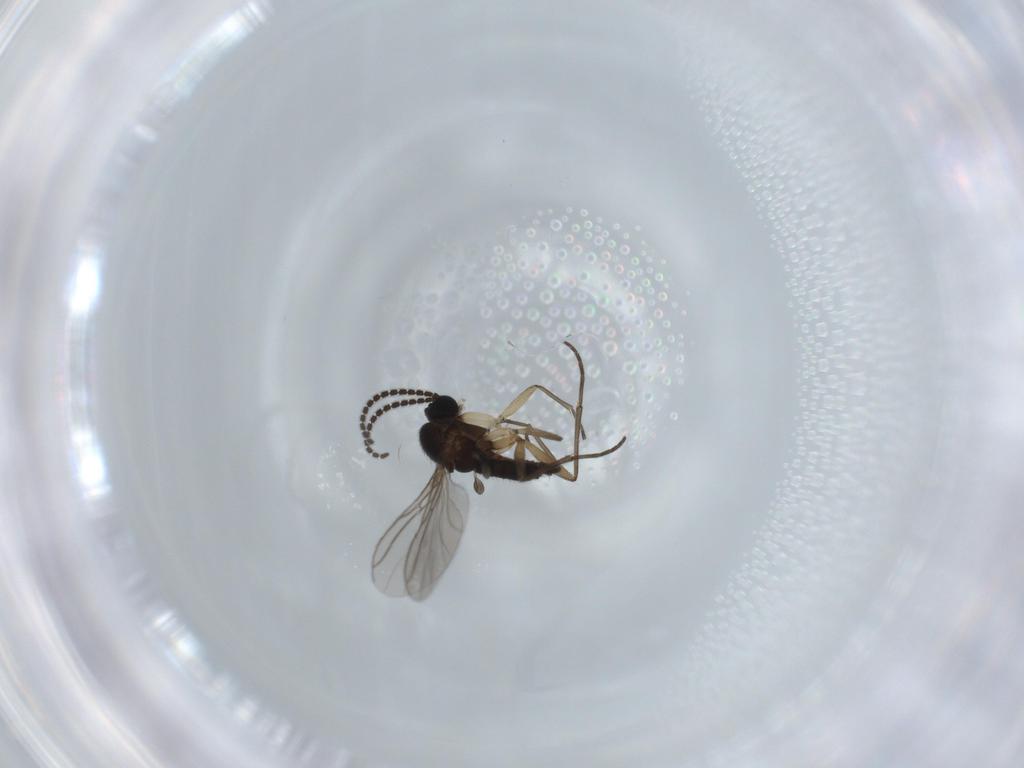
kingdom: Animalia
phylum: Arthropoda
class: Insecta
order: Diptera
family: Sciaridae
